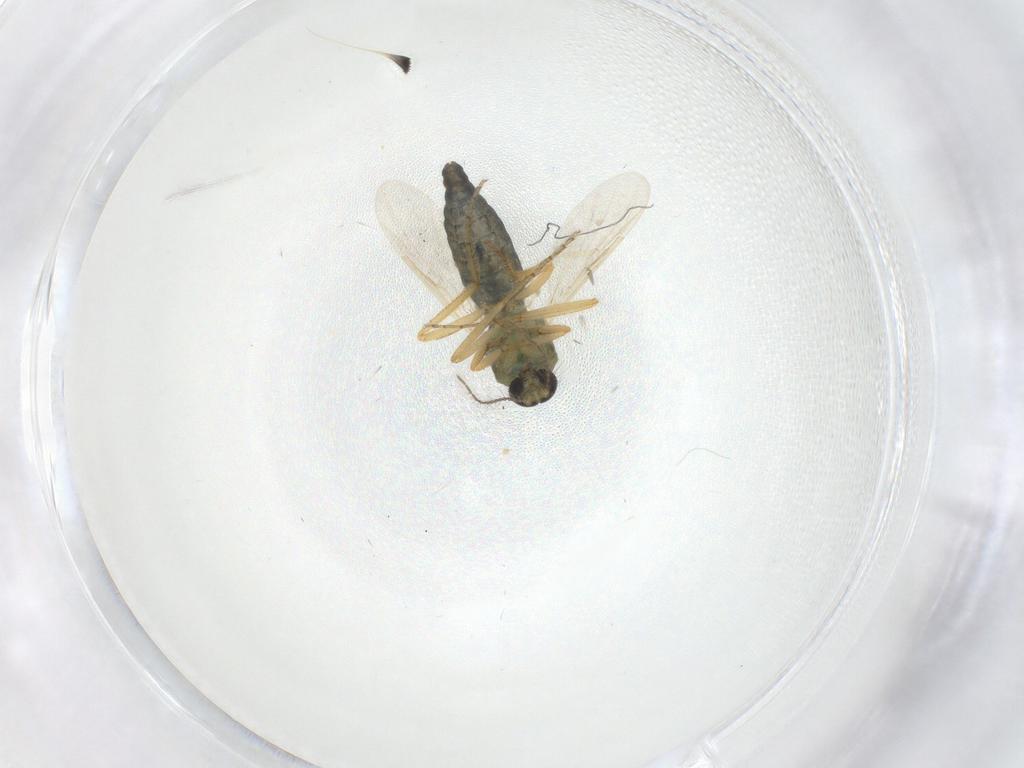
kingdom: Animalia
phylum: Arthropoda
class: Insecta
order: Diptera
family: Ceratopogonidae
